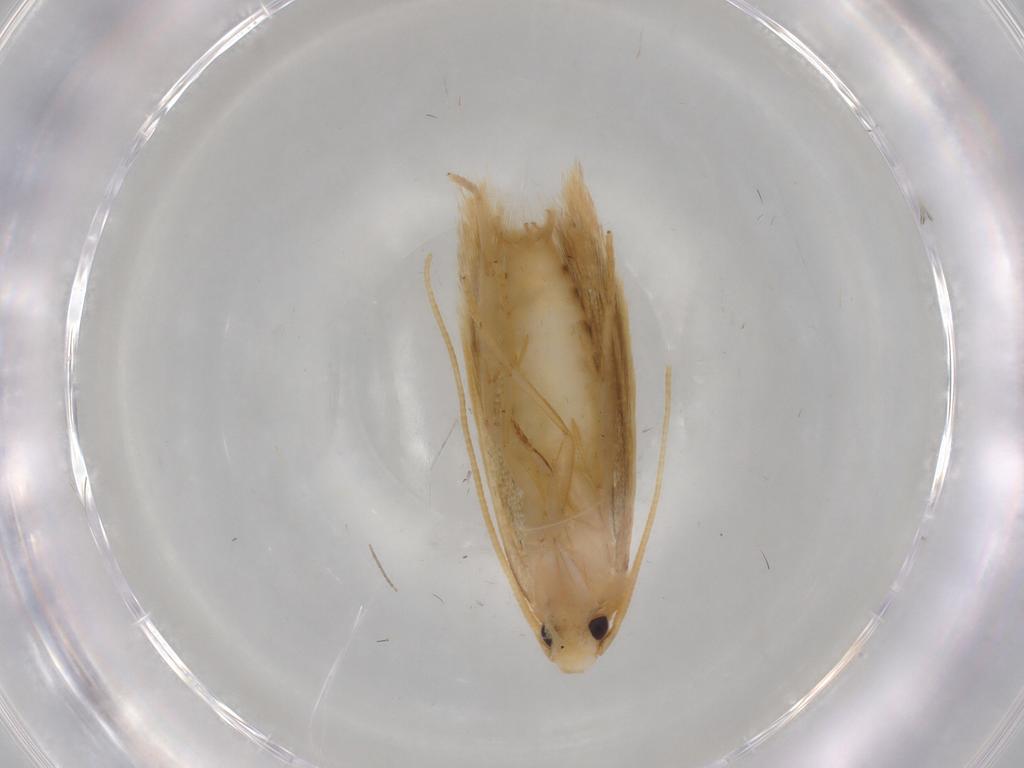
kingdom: Animalia
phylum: Arthropoda
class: Insecta
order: Lepidoptera
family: Tineidae
